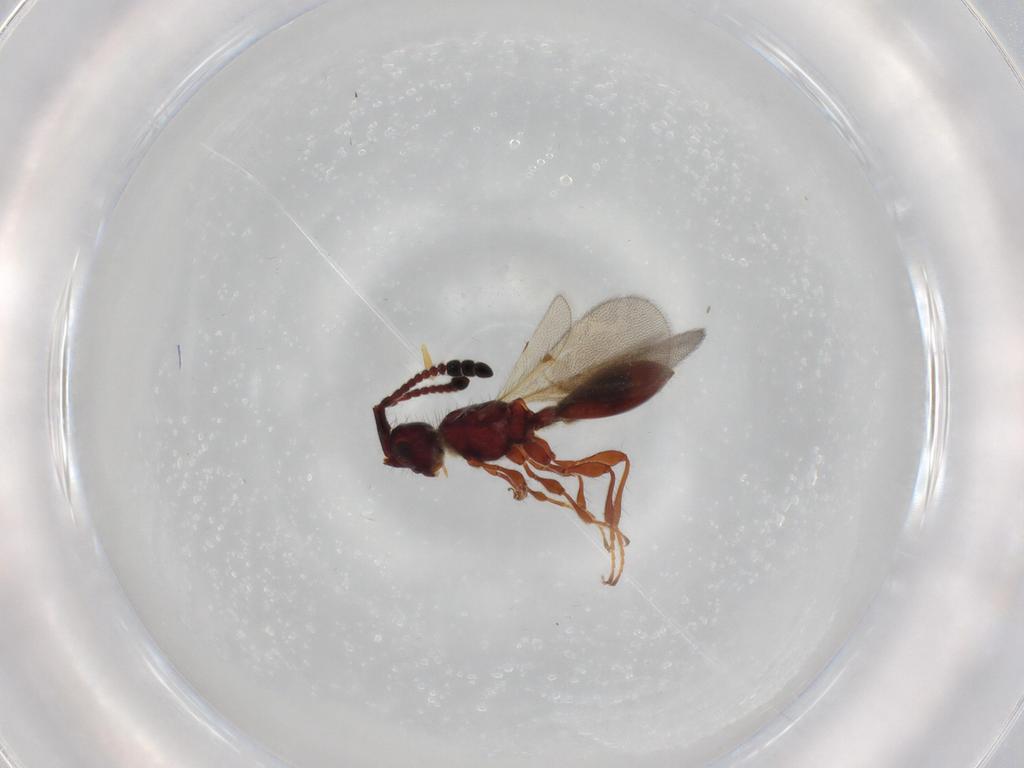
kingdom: Animalia
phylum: Arthropoda
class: Insecta
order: Hymenoptera
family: Diapriidae
